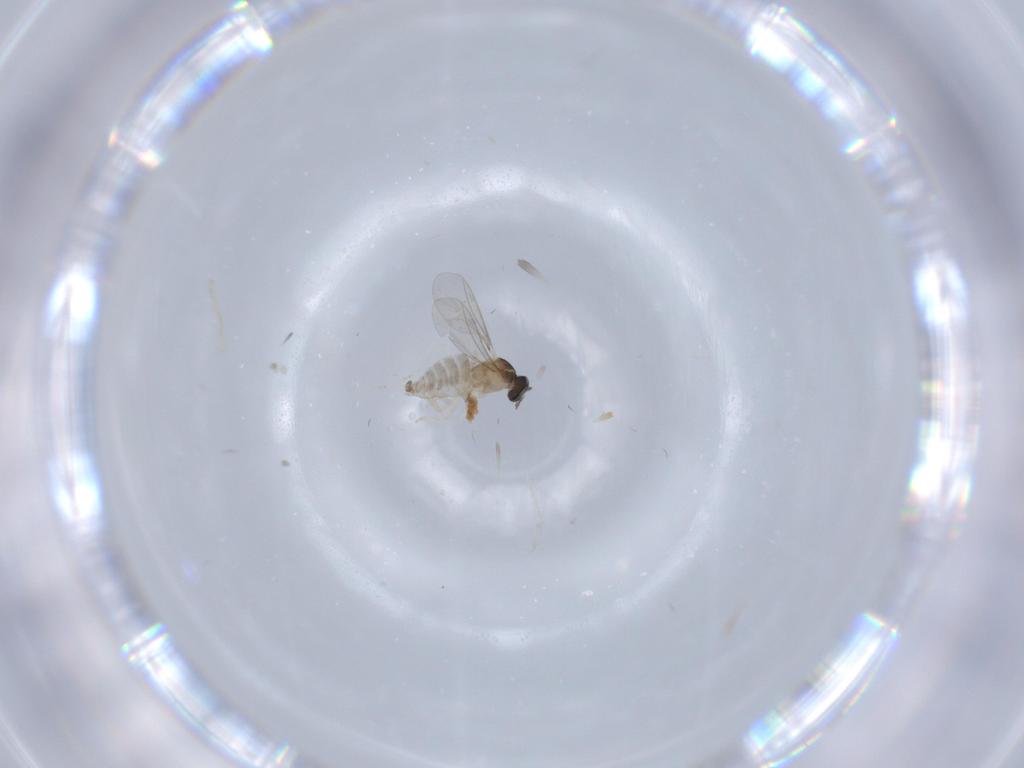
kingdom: Animalia
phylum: Arthropoda
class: Insecta
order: Diptera
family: Cecidomyiidae
